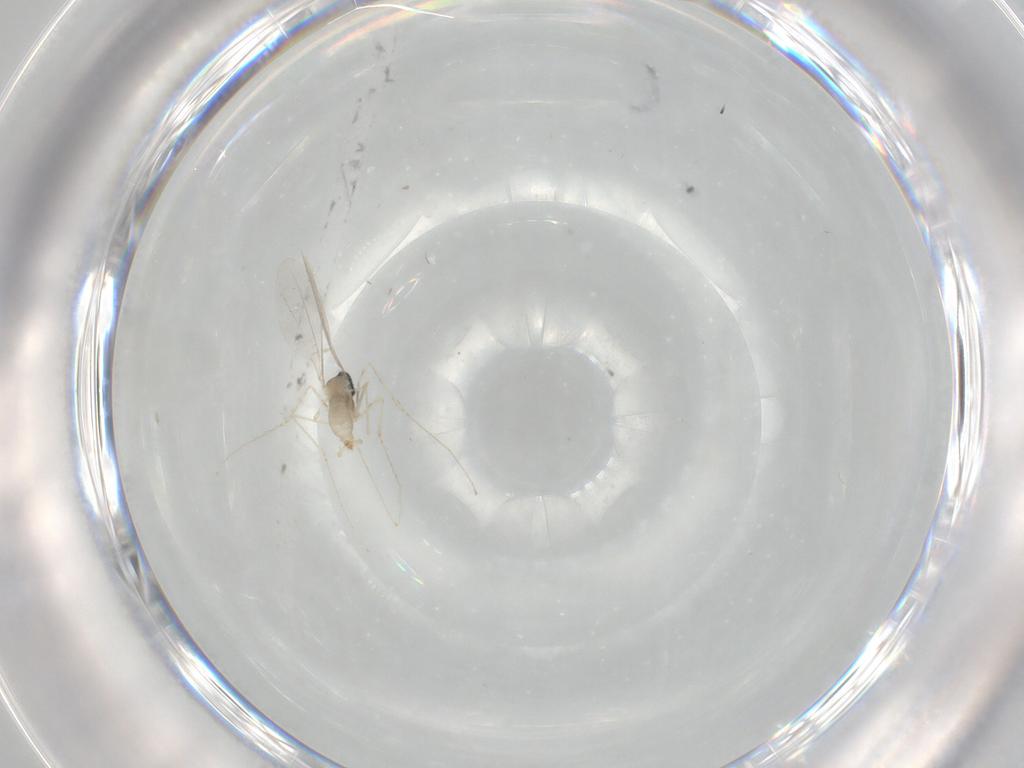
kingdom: Animalia
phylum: Arthropoda
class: Insecta
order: Diptera
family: Cecidomyiidae
